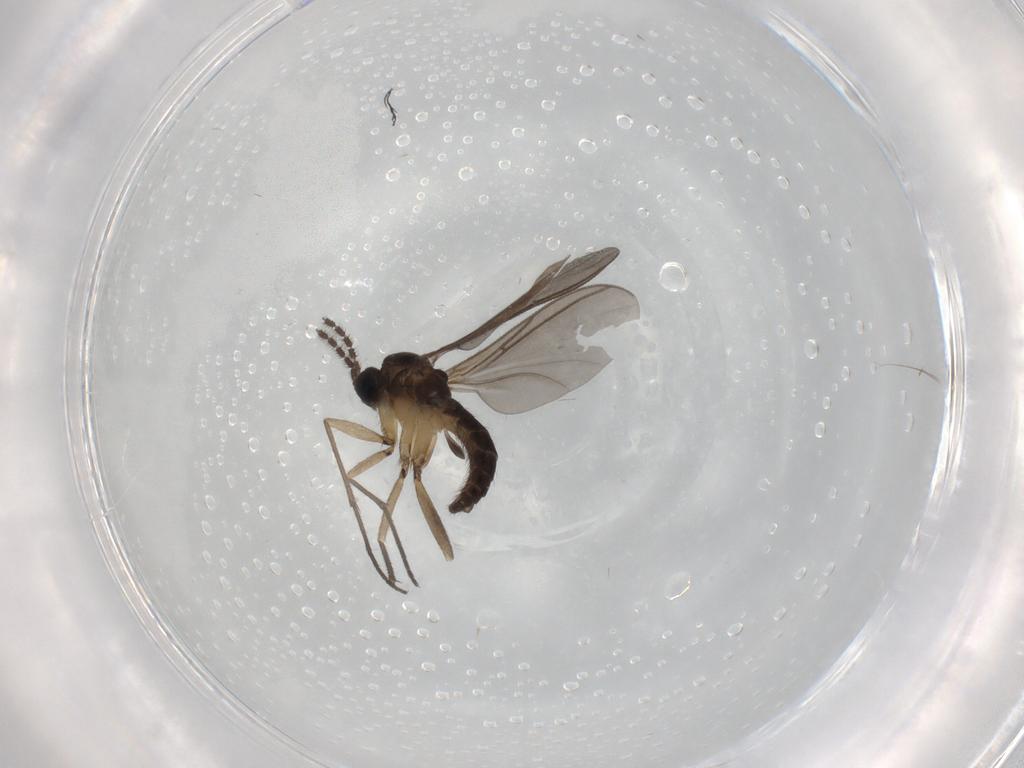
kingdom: Animalia
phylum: Arthropoda
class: Insecta
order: Diptera
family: Sciaridae
